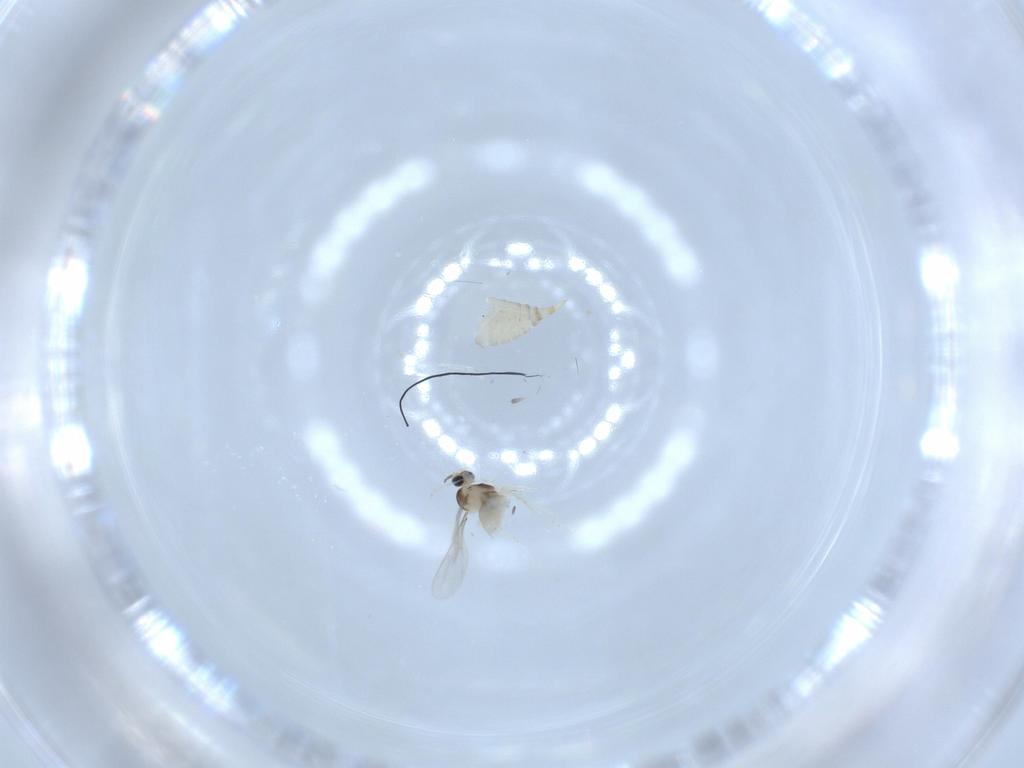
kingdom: Animalia
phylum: Arthropoda
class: Insecta
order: Diptera
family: Cecidomyiidae
